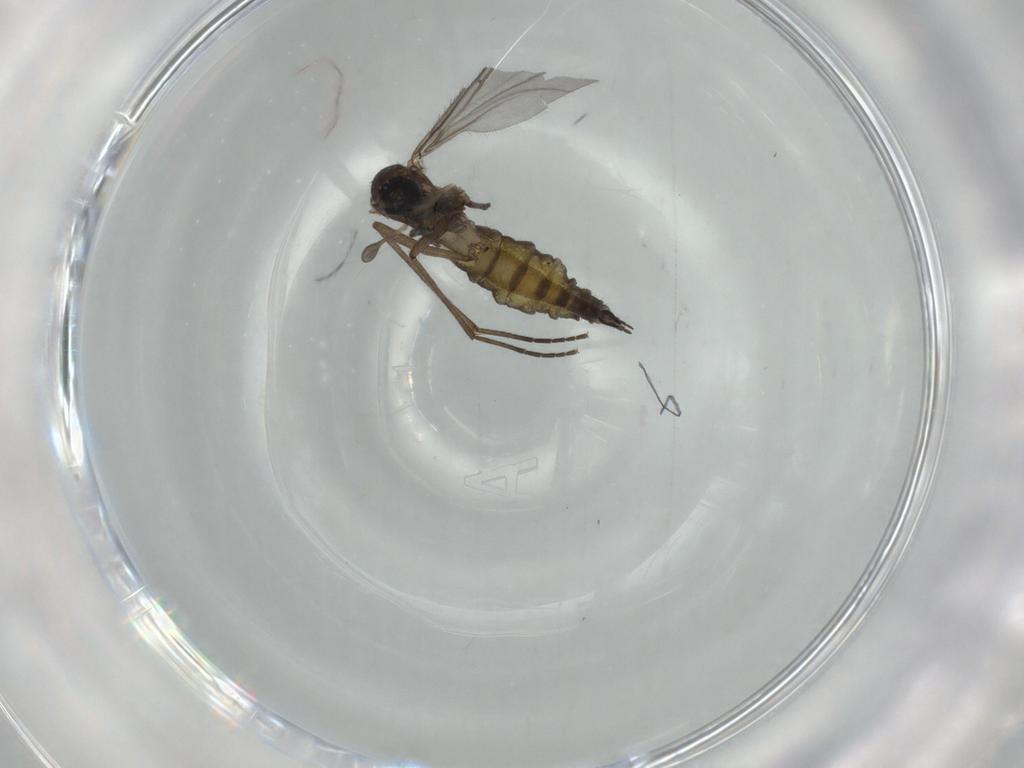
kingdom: Animalia
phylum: Arthropoda
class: Insecta
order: Diptera
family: Sciaridae
